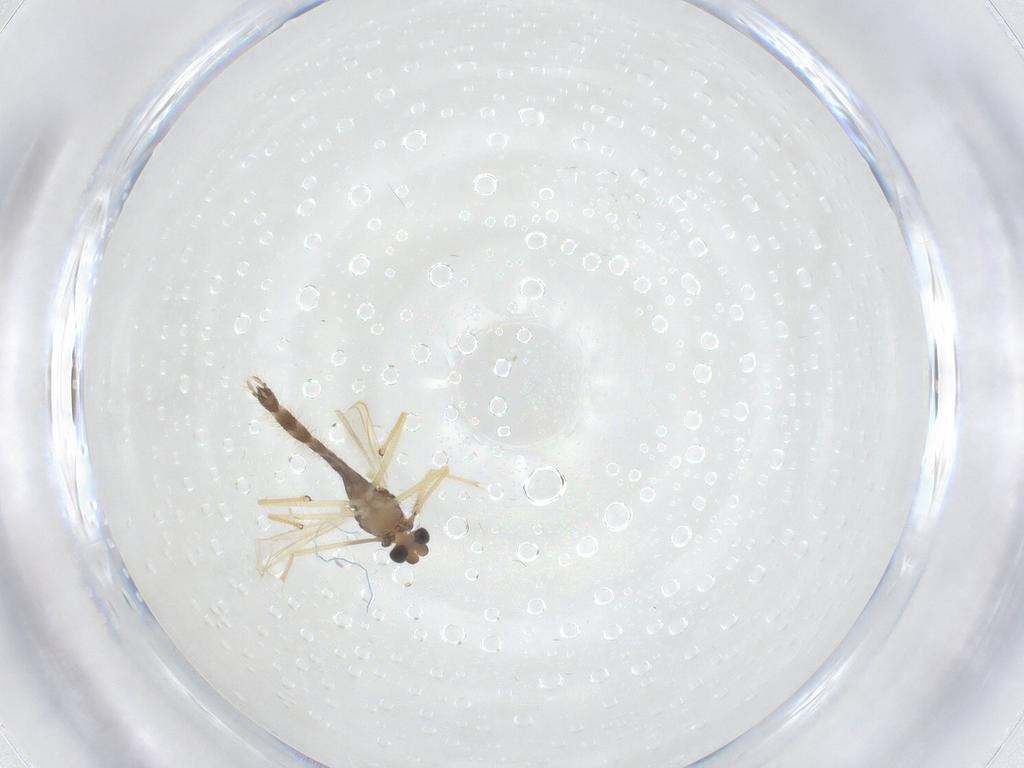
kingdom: Animalia
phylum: Arthropoda
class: Insecta
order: Diptera
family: Chironomidae
